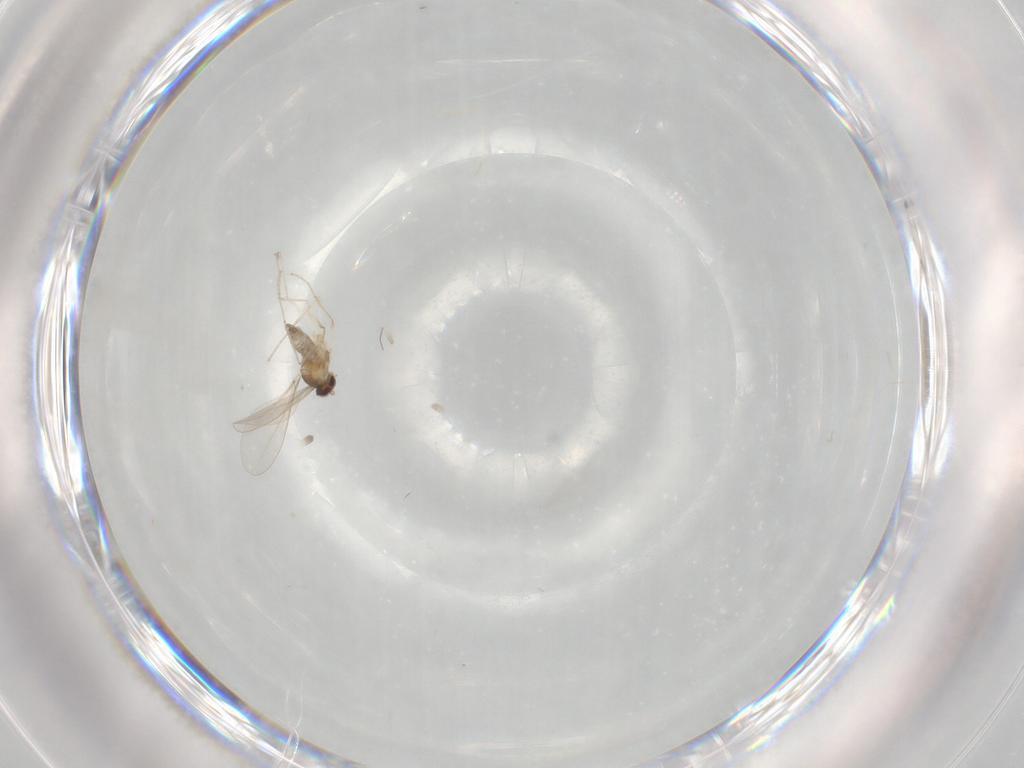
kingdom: Animalia
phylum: Arthropoda
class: Insecta
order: Diptera
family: Cecidomyiidae
